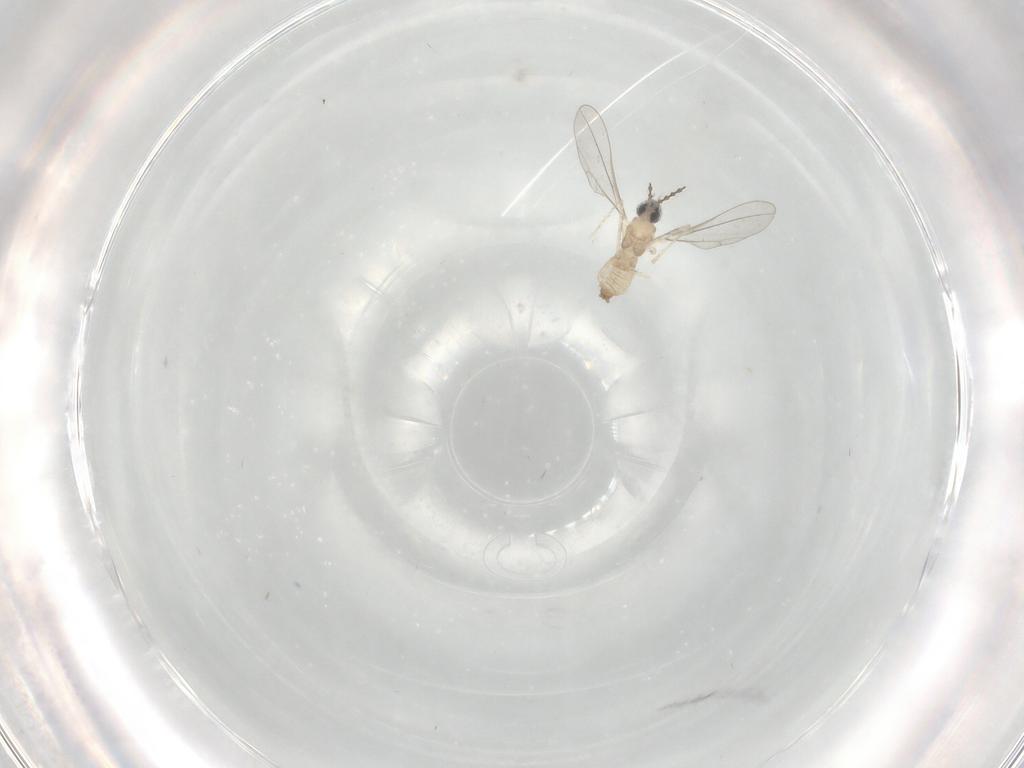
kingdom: Animalia
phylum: Arthropoda
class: Insecta
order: Diptera
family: Cecidomyiidae
